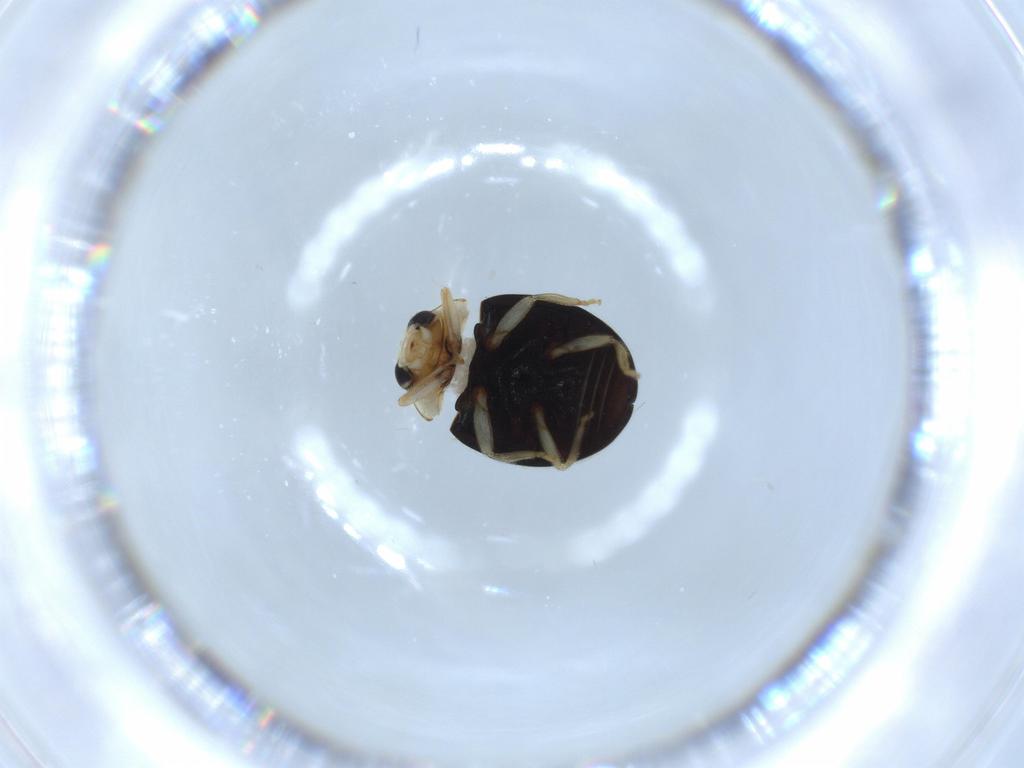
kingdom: Animalia
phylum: Arthropoda
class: Insecta
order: Coleoptera
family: Coccinellidae
